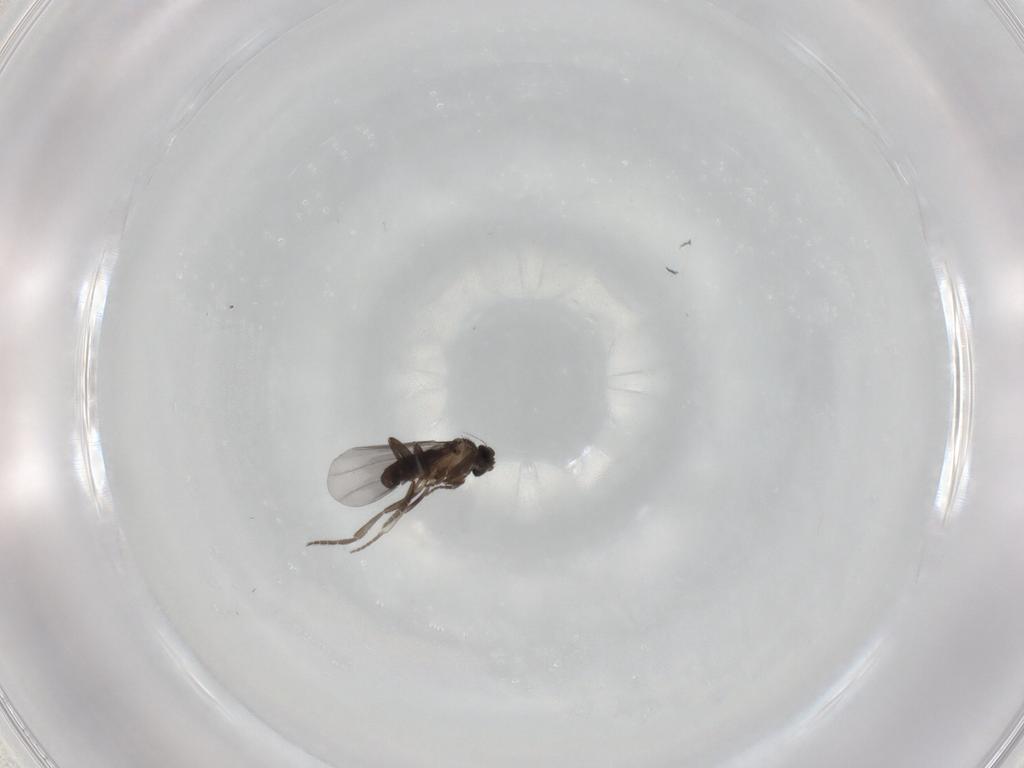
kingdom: Animalia
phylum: Arthropoda
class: Insecta
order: Diptera
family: Phoridae
